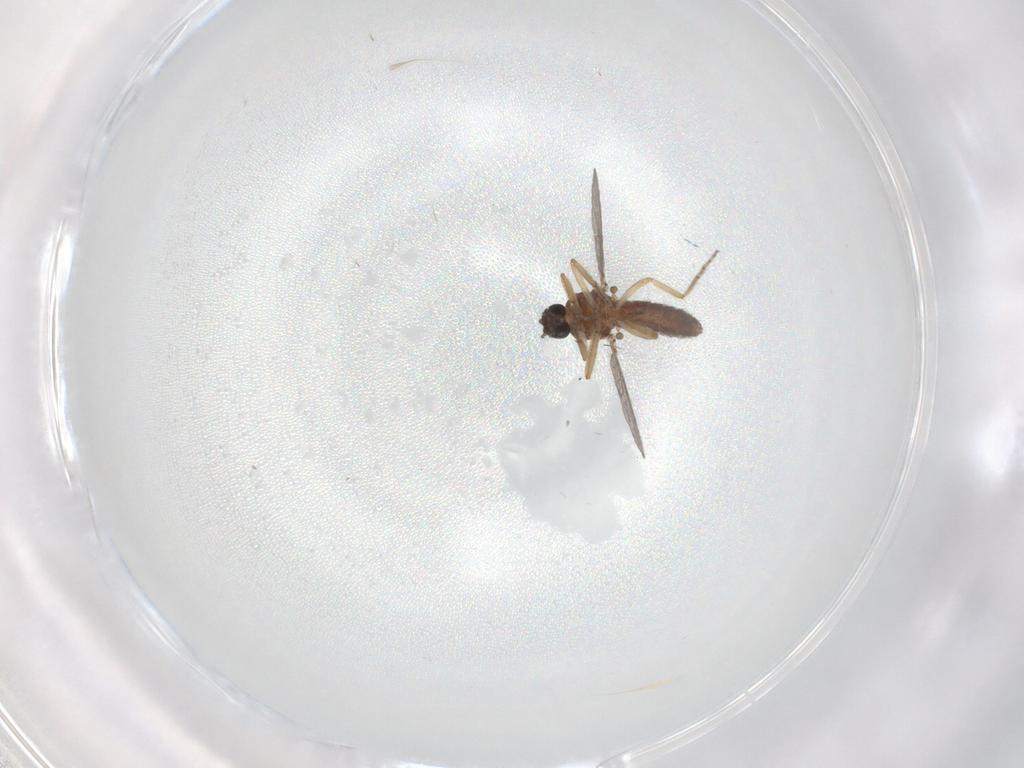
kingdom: Animalia
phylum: Arthropoda
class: Insecta
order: Diptera
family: Ceratopogonidae
